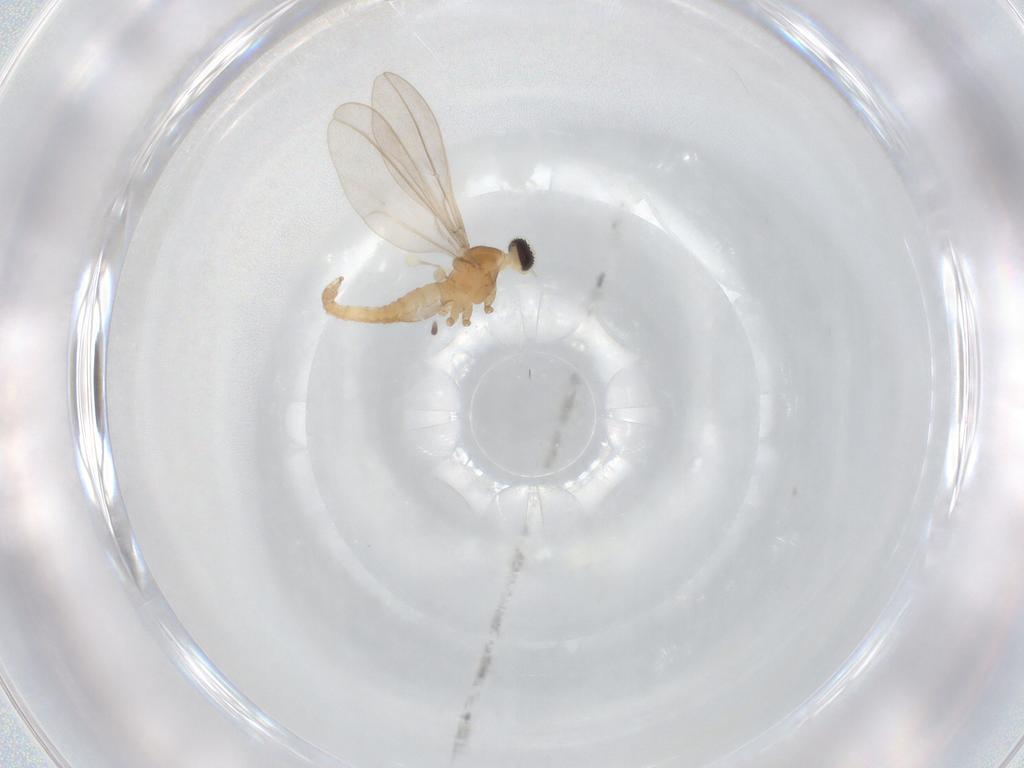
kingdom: Animalia
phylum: Arthropoda
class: Insecta
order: Diptera
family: Cecidomyiidae
